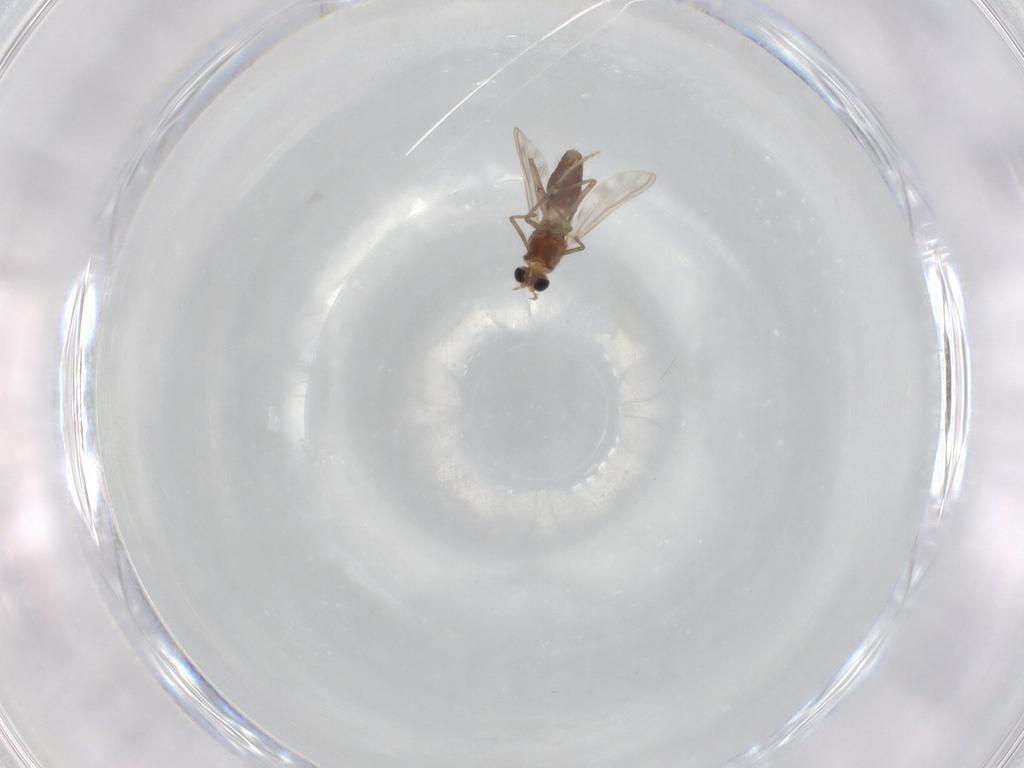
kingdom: Animalia
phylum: Arthropoda
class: Insecta
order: Diptera
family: Chironomidae
